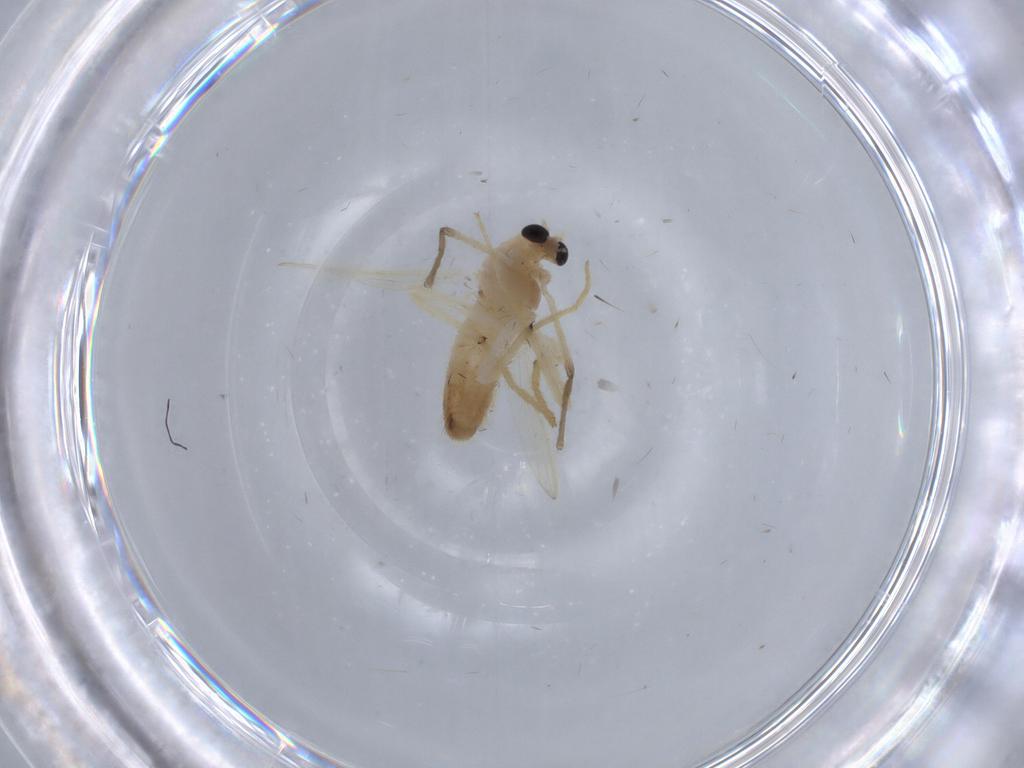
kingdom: Animalia
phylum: Arthropoda
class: Insecta
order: Diptera
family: Chironomidae
